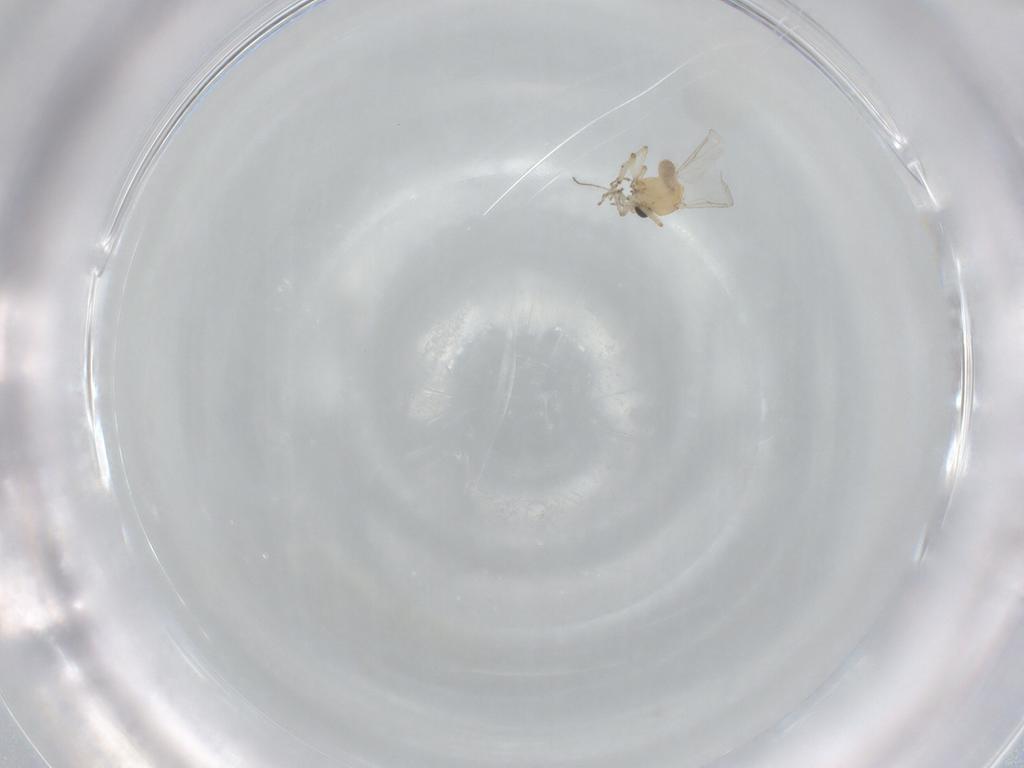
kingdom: Animalia
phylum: Arthropoda
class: Insecta
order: Diptera
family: Ceratopogonidae
